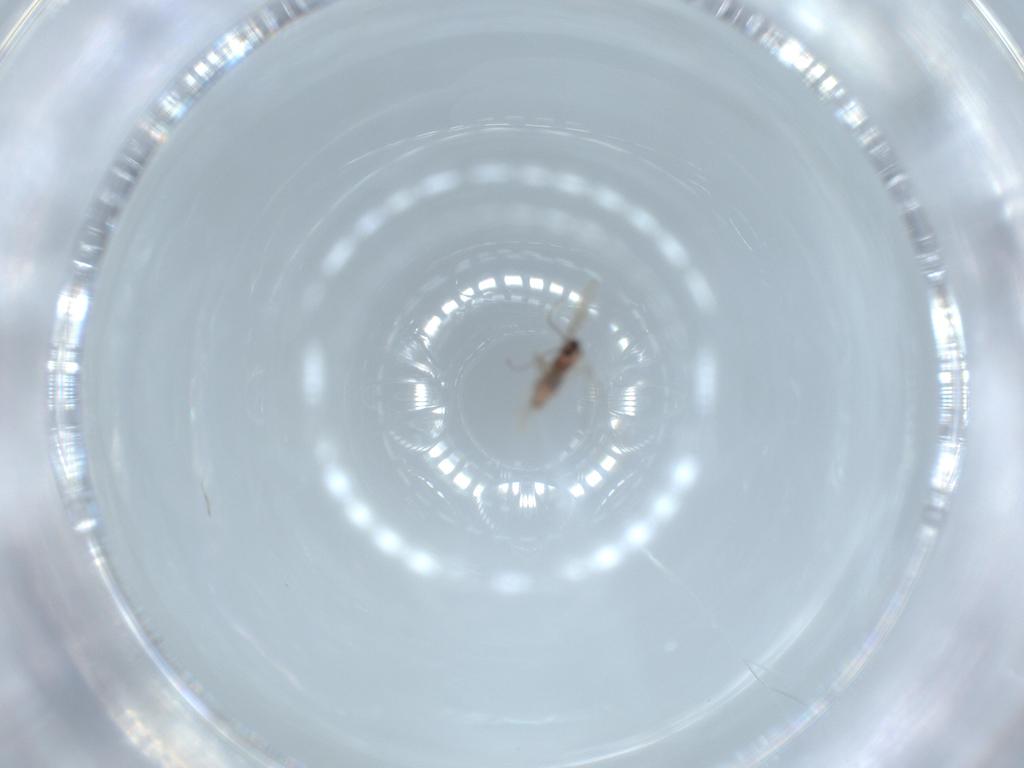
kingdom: Animalia
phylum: Arthropoda
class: Insecta
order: Diptera
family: Cecidomyiidae
